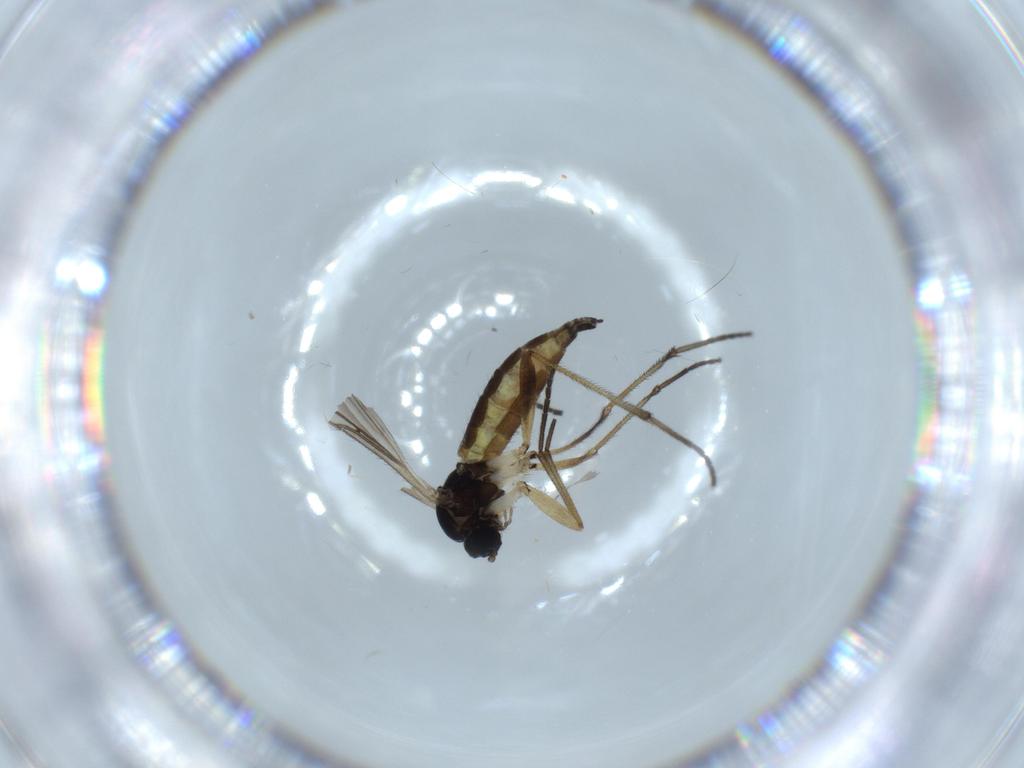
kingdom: Animalia
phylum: Arthropoda
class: Insecta
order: Diptera
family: Sciaridae
